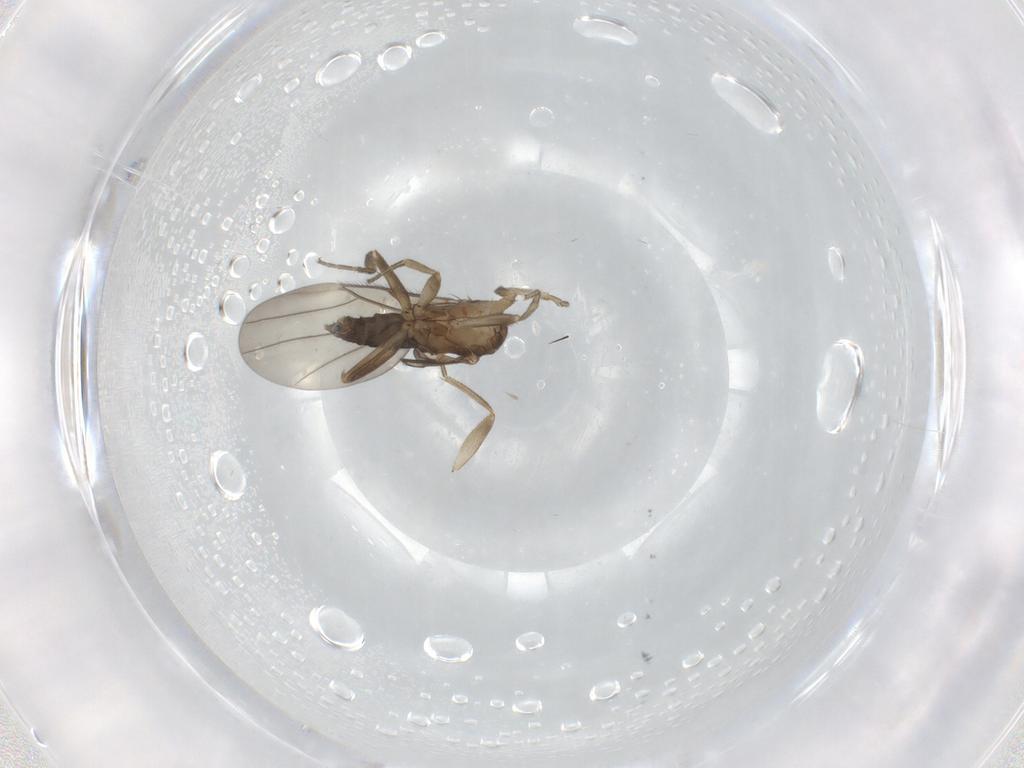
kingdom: Animalia
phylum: Arthropoda
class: Insecta
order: Diptera
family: Phoridae
